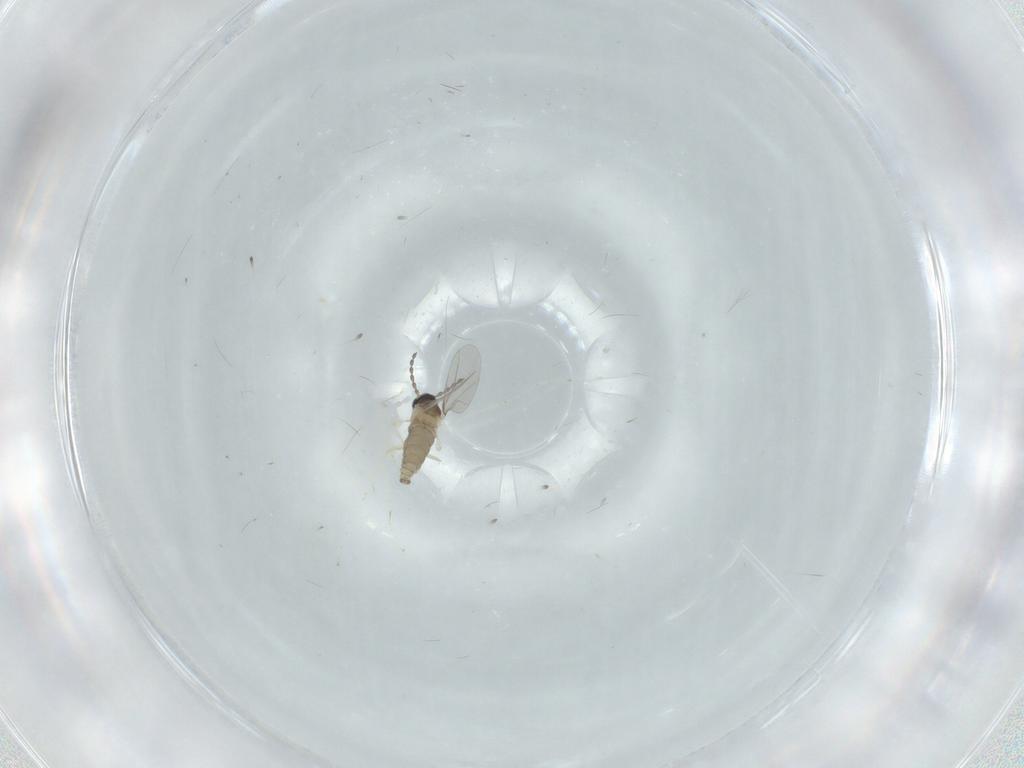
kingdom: Animalia
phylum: Arthropoda
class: Insecta
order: Diptera
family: Cecidomyiidae
